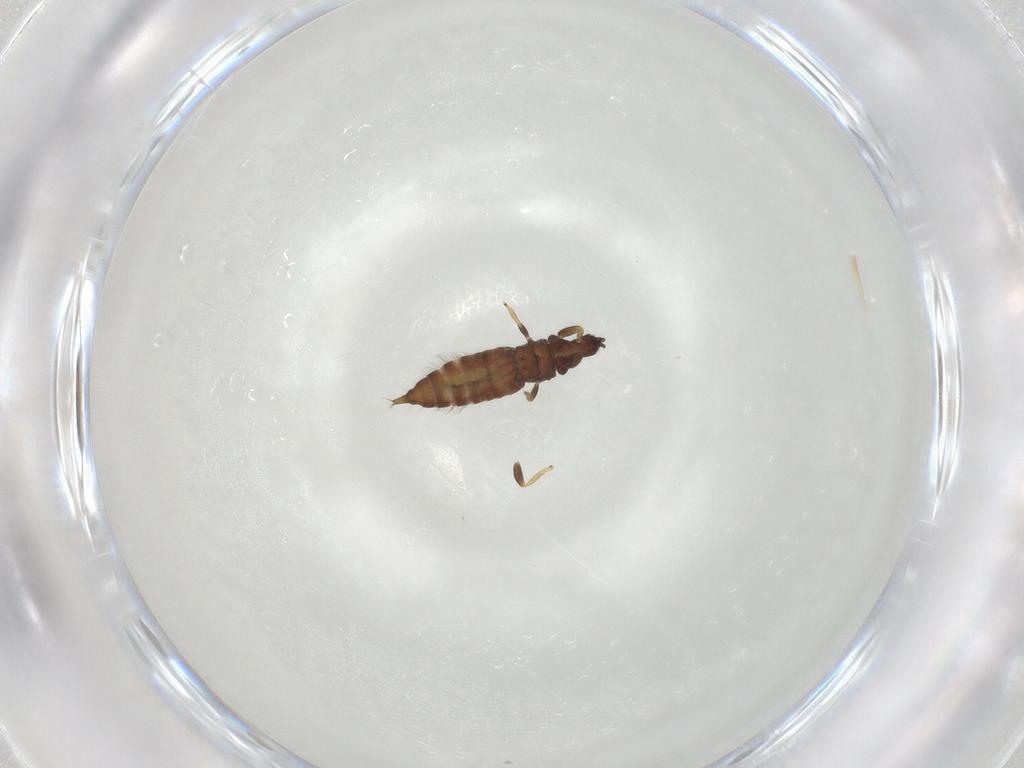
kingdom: Animalia
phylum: Arthropoda
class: Insecta
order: Thysanoptera
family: Phlaeothripidae
